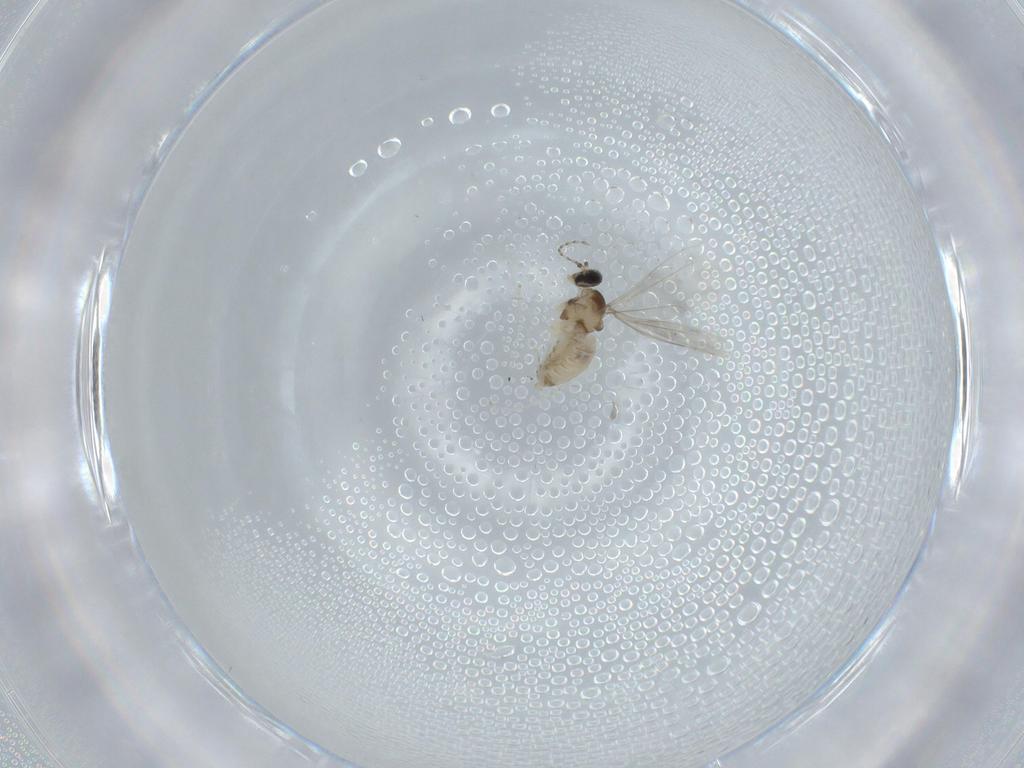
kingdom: Animalia
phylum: Arthropoda
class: Insecta
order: Diptera
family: Cecidomyiidae
